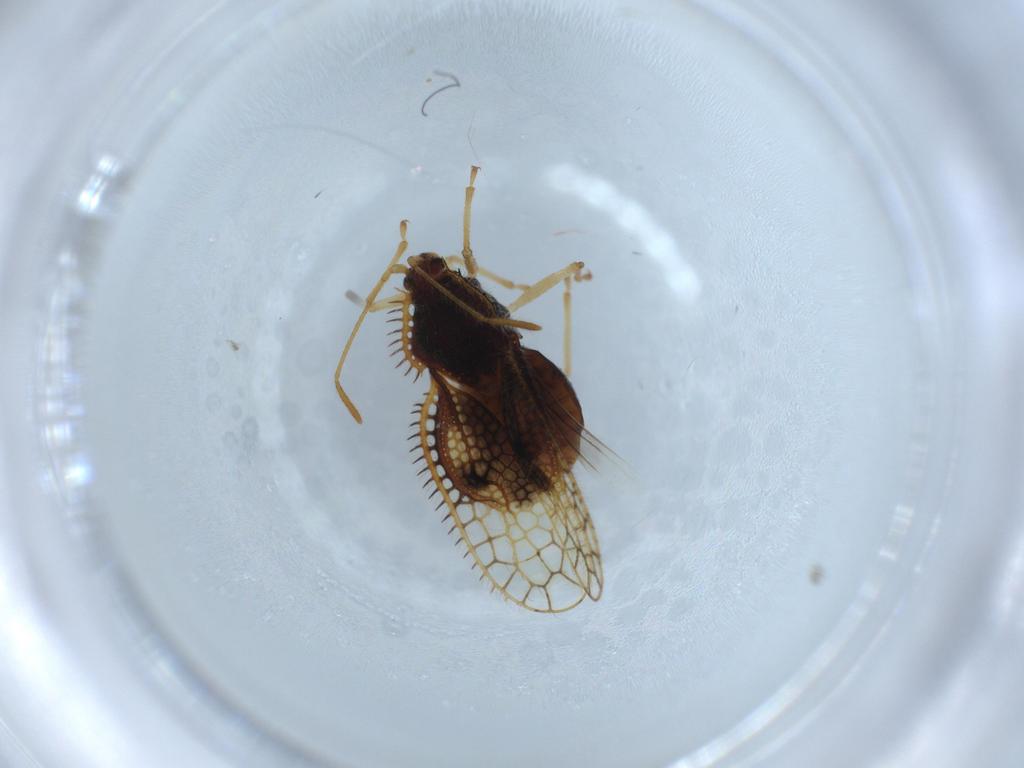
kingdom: Animalia
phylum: Arthropoda
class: Insecta
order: Hemiptera
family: Tingidae
